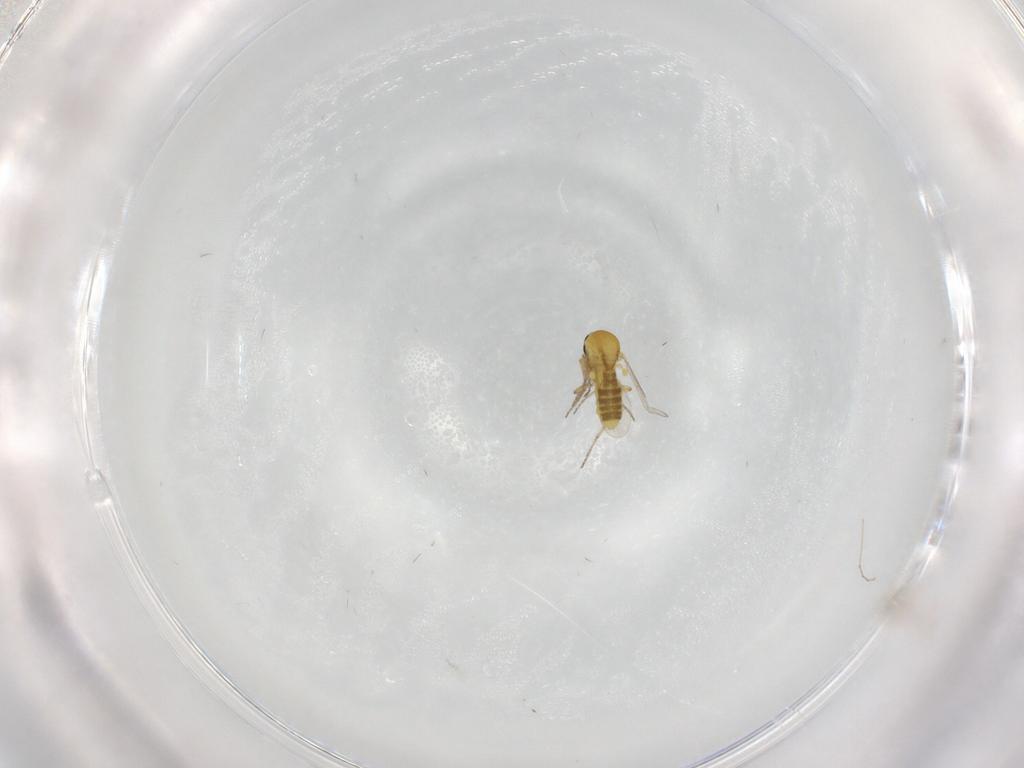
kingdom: Animalia
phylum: Arthropoda
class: Insecta
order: Diptera
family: Ceratopogonidae
